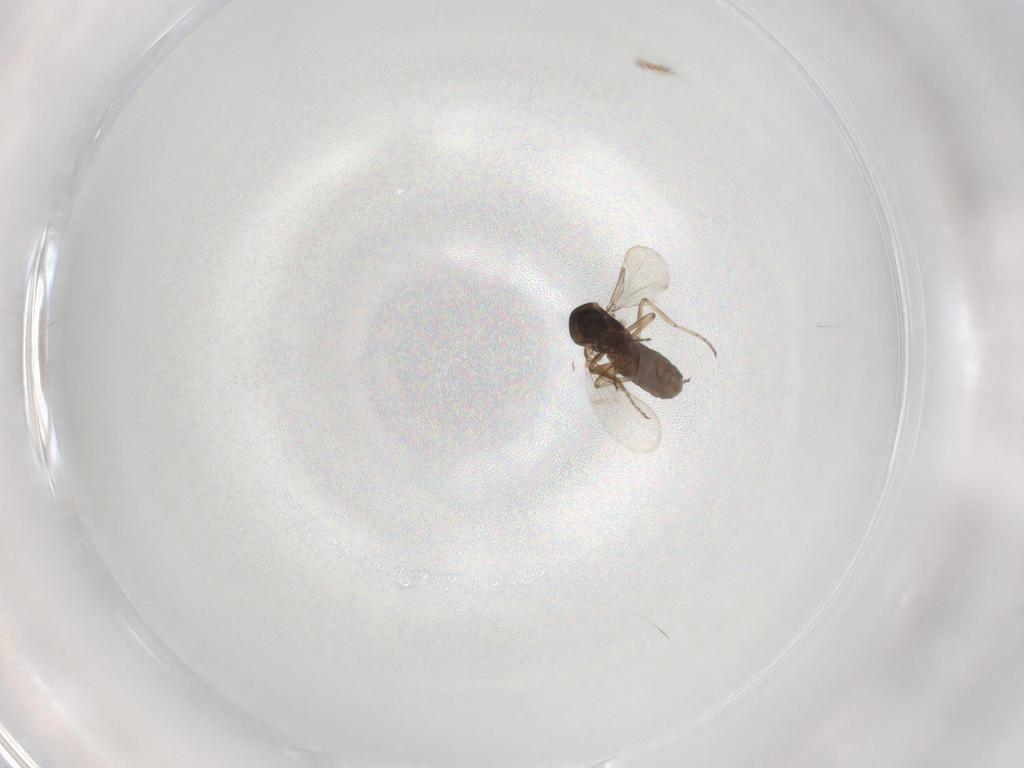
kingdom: Animalia
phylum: Arthropoda
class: Insecta
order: Diptera
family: Ceratopogonidae
